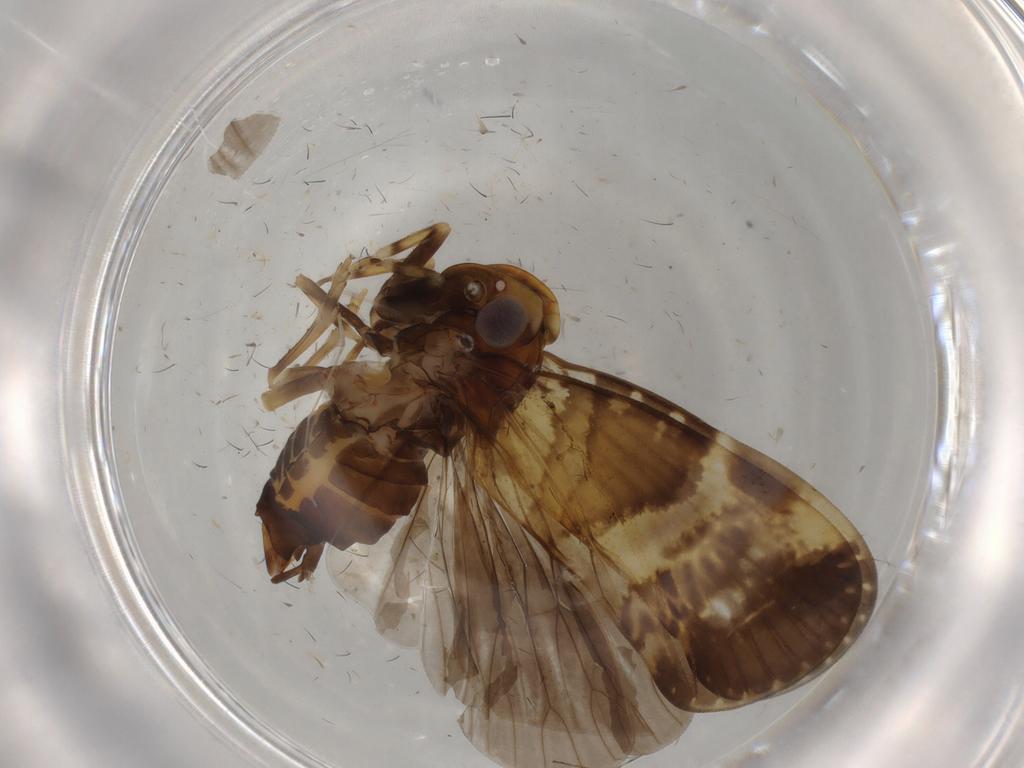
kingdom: Animalia
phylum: Arthropoda
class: Insecta
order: Hemiptera
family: Cixiidae
